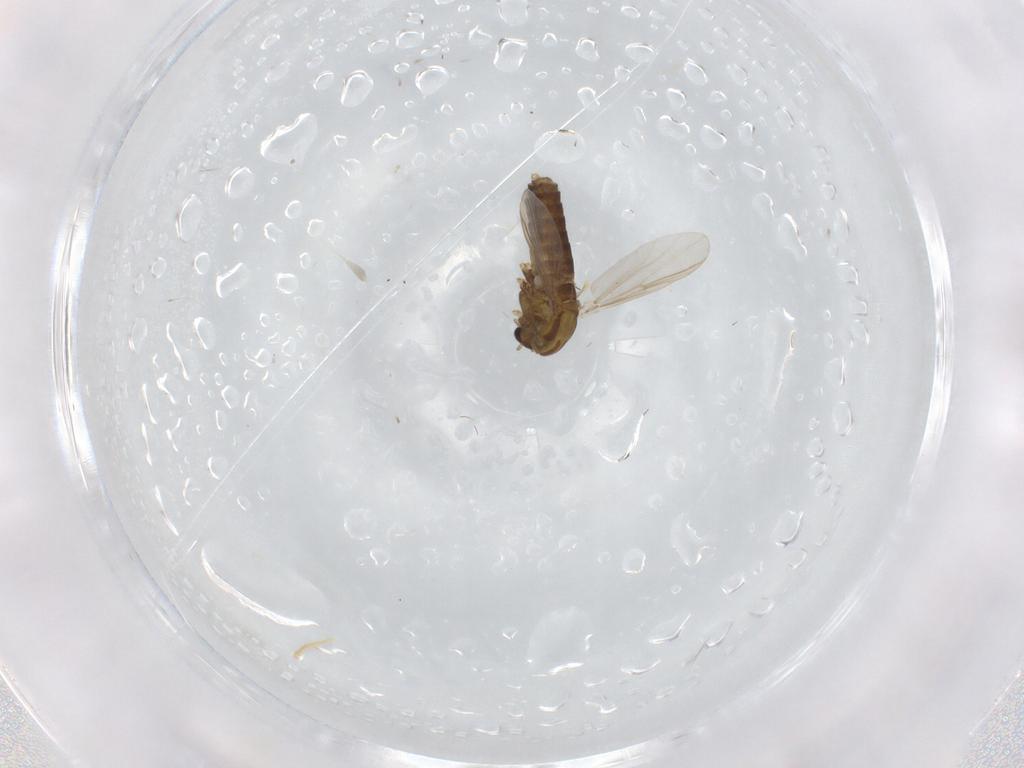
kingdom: Animalia
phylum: Arthropoda
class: Insecta
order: Diptera
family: Chironomidae
